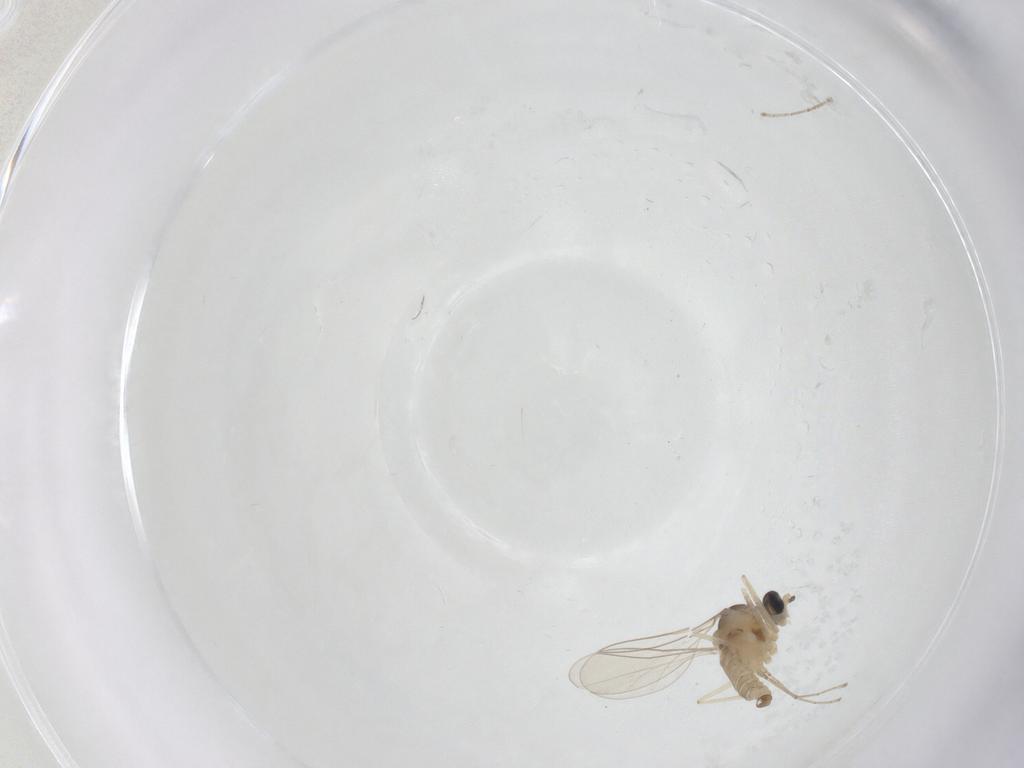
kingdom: Animalia
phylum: Arthropoda
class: Insecta
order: Diptera
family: Cecidomyiidae
